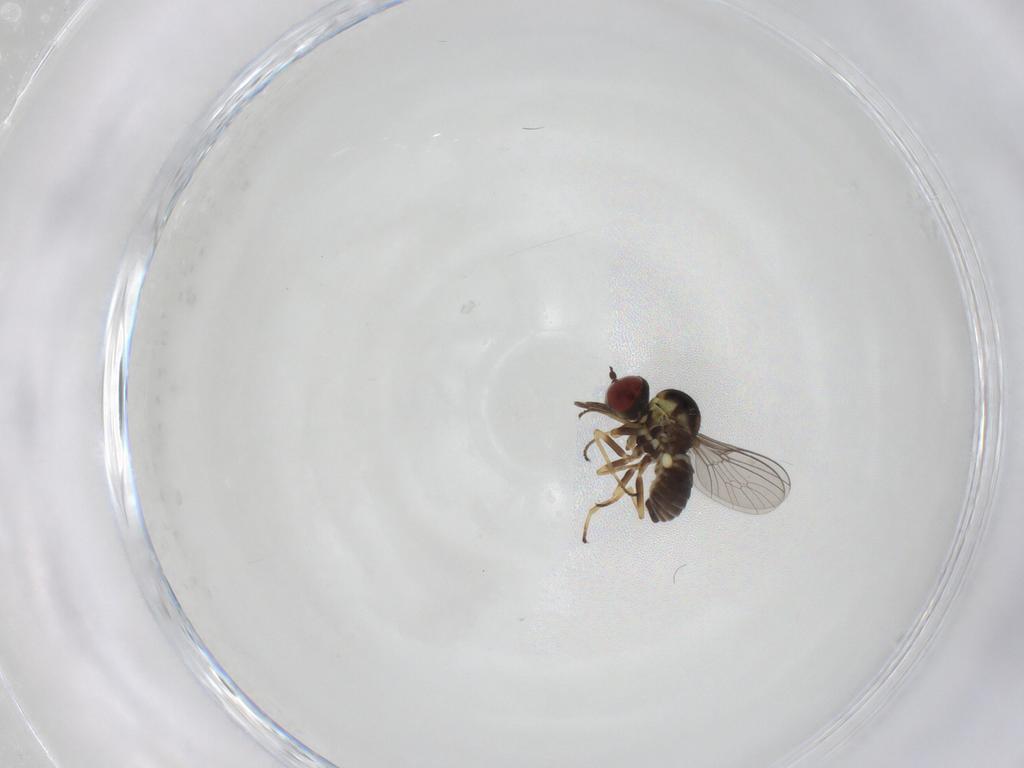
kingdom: Animalia
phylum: Arthropoda
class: Insecta
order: Diptera
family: Bombyliidae
